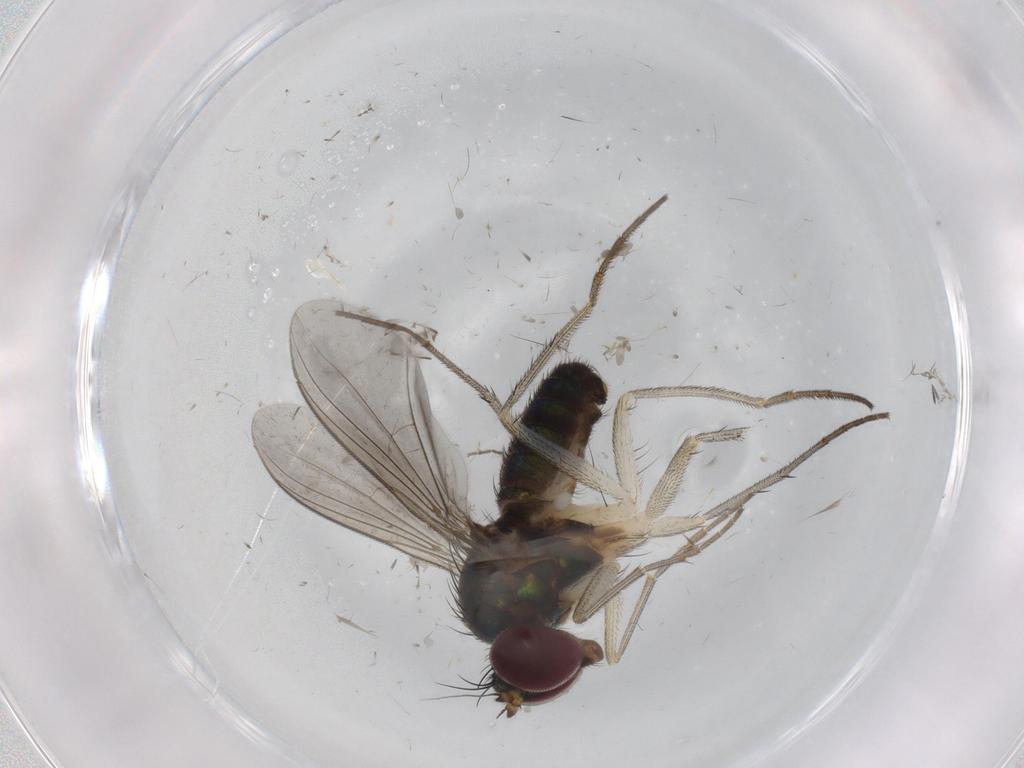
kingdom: Animalia
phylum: Arthropoda
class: Insecta
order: Diptera
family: Dolichopodidae
